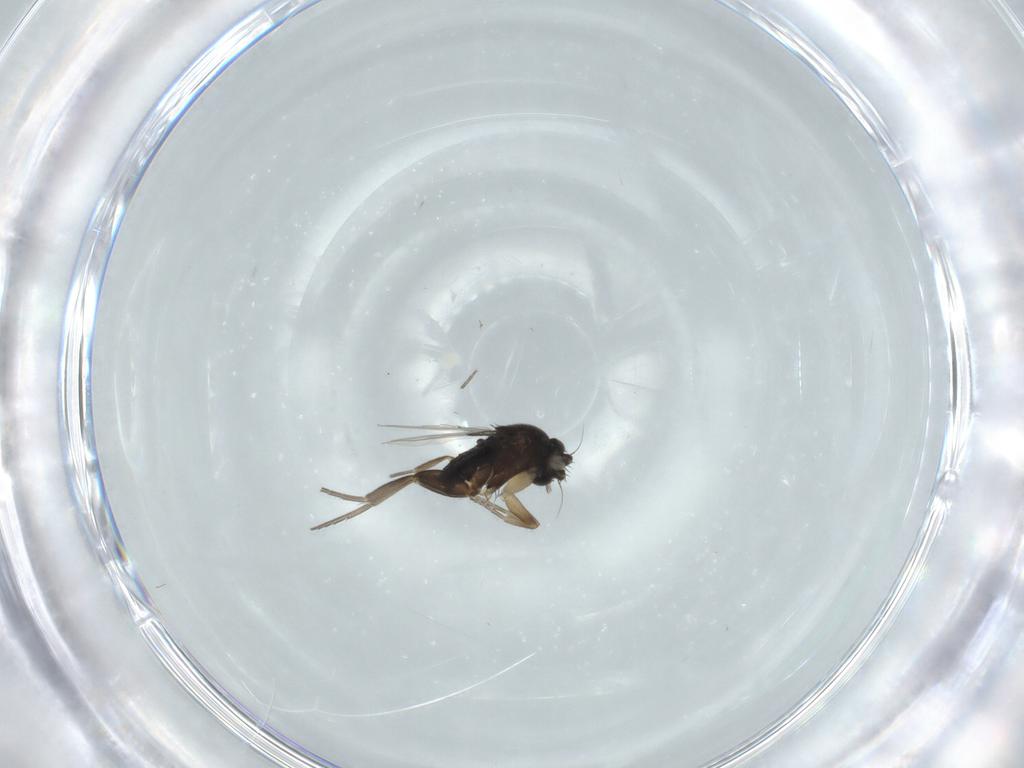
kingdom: Animalia
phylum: Arthropoda
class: Insecta
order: Diptera
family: Phoridae
